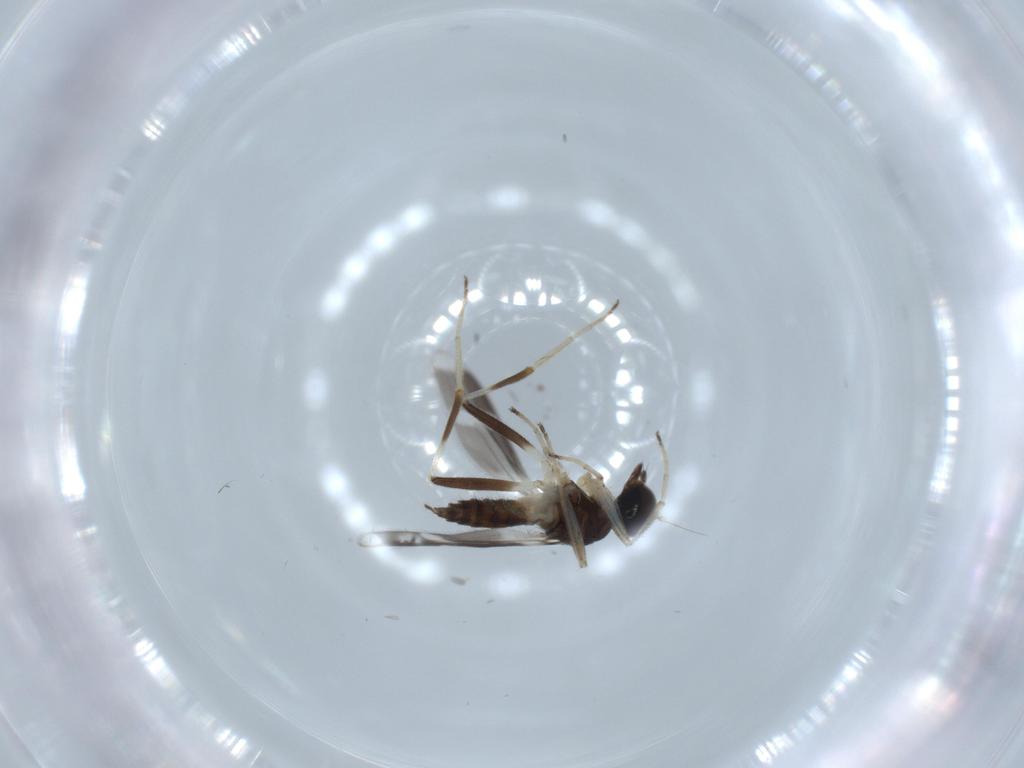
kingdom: Animalia
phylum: Arthropoda
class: Insecta
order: Diptera
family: Hybotidae
